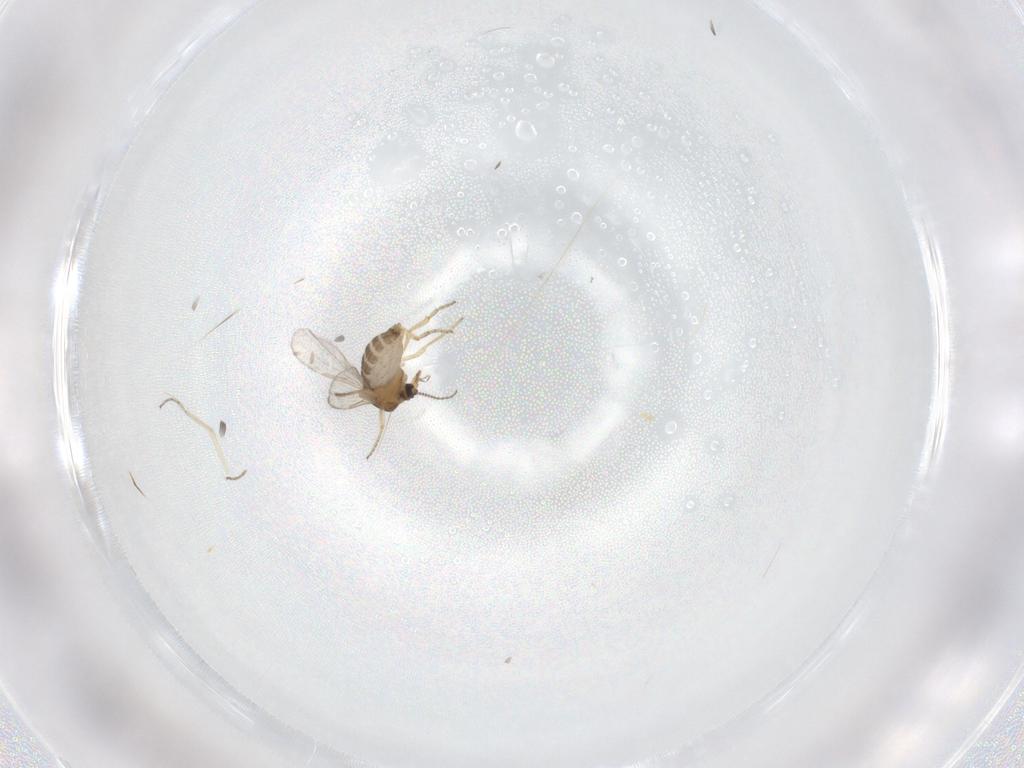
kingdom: Animalia
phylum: Arthropoda
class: Insecta
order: Diptera
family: Ceratopogonidae
